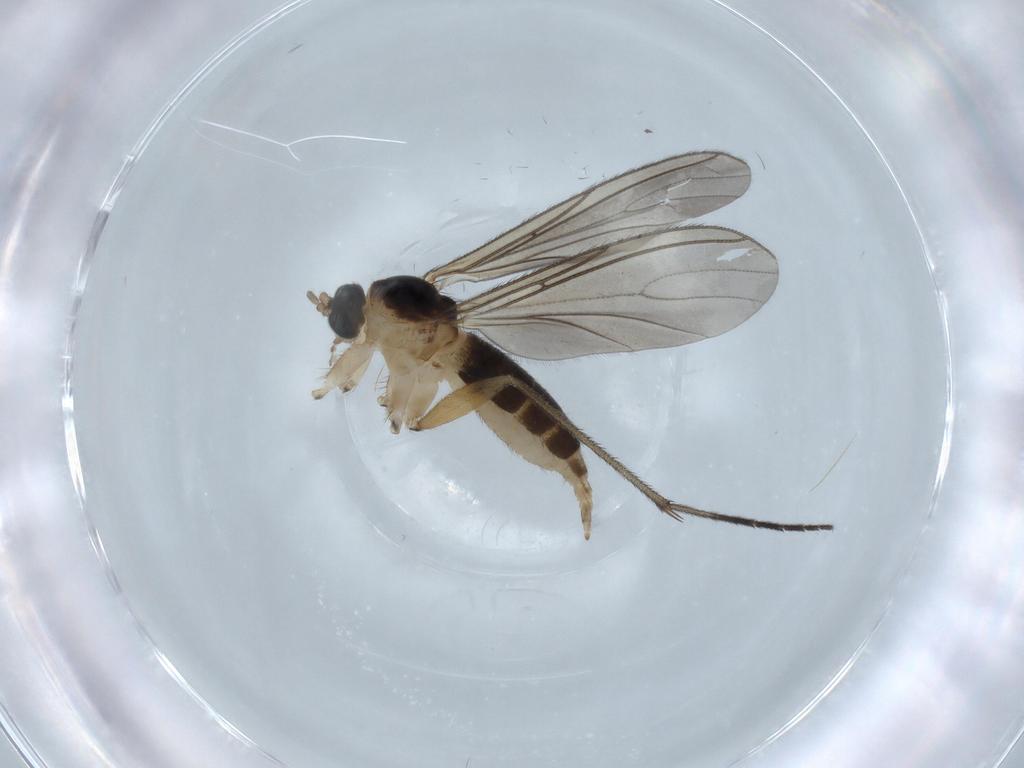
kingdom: Animalia
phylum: Arthropoda
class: Insecta
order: Diptera
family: Sciaridae
